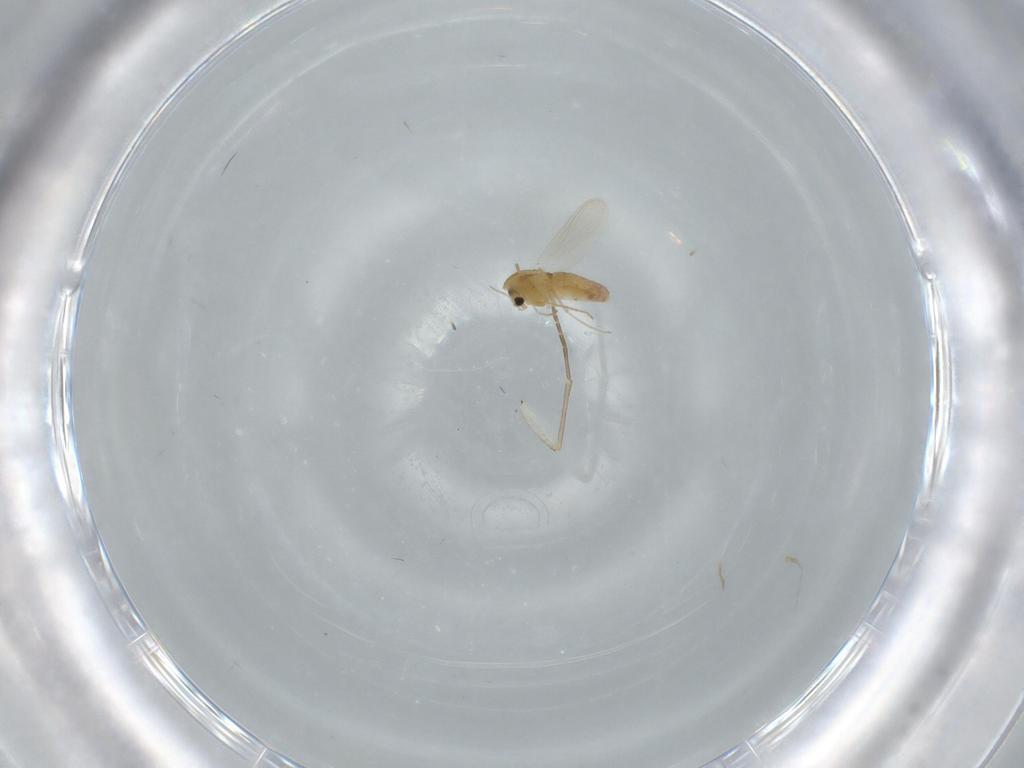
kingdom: Animalia
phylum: Arthropoda
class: Insecta
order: Diptera
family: Chironomidae
